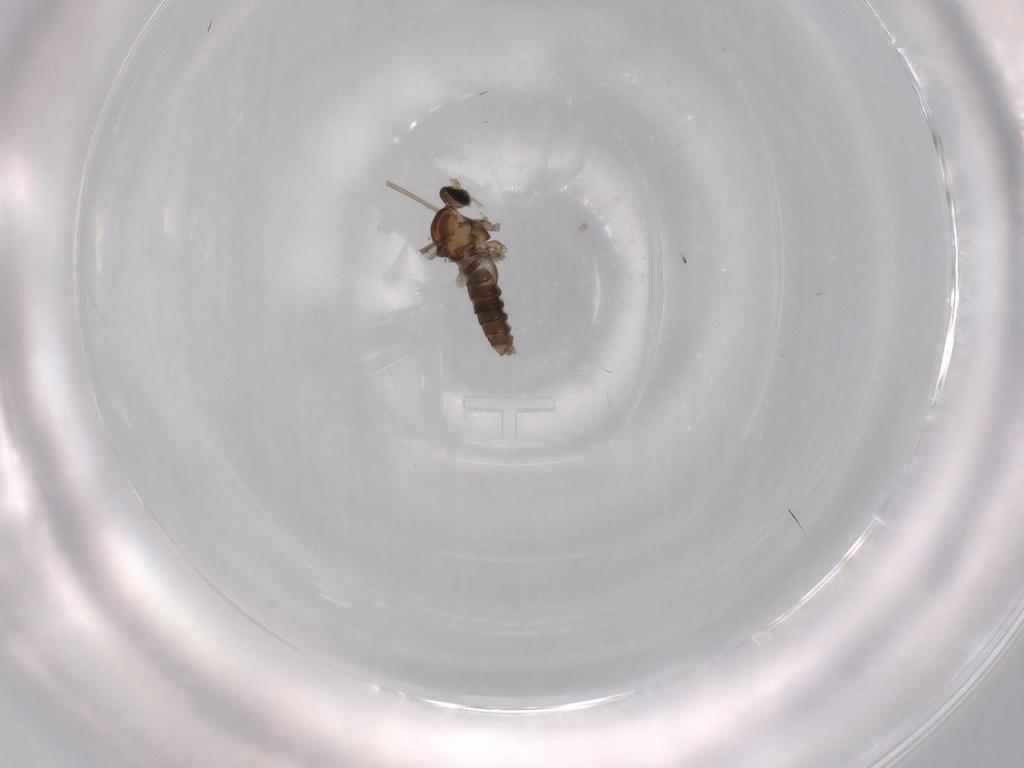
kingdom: Animalia
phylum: Arthropoda
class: Insecta
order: Diptera
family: Cecidomyiidae
